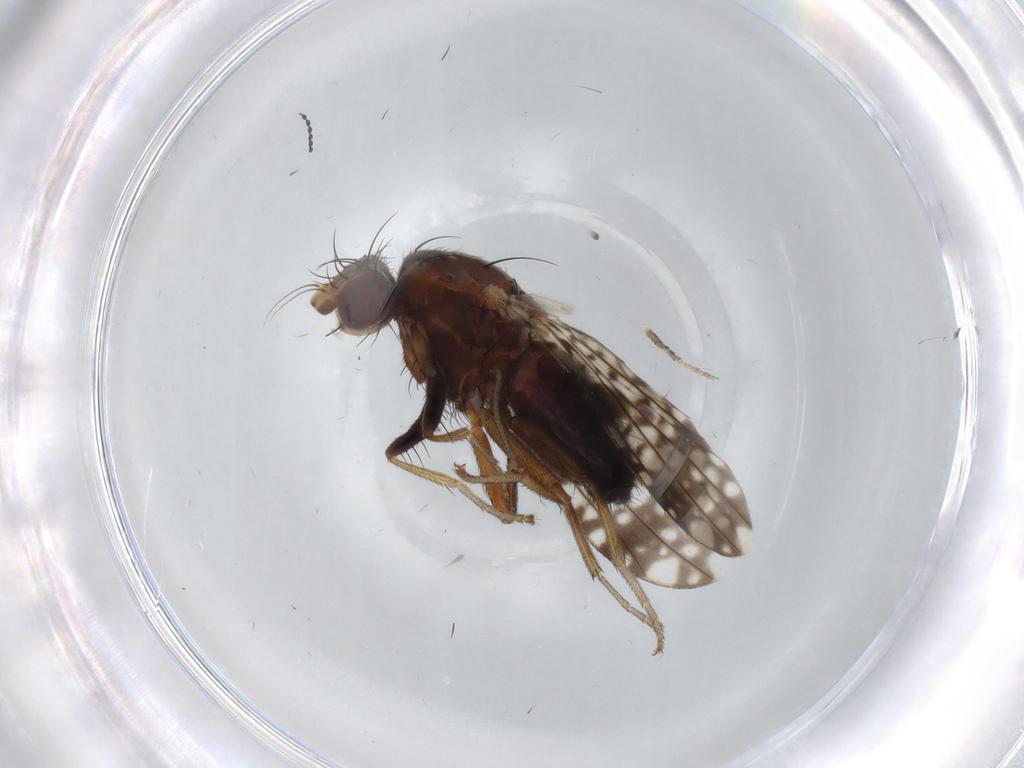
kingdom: Animalia
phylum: Arthropoda
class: Insecta
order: Diptera
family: Tephritidae
